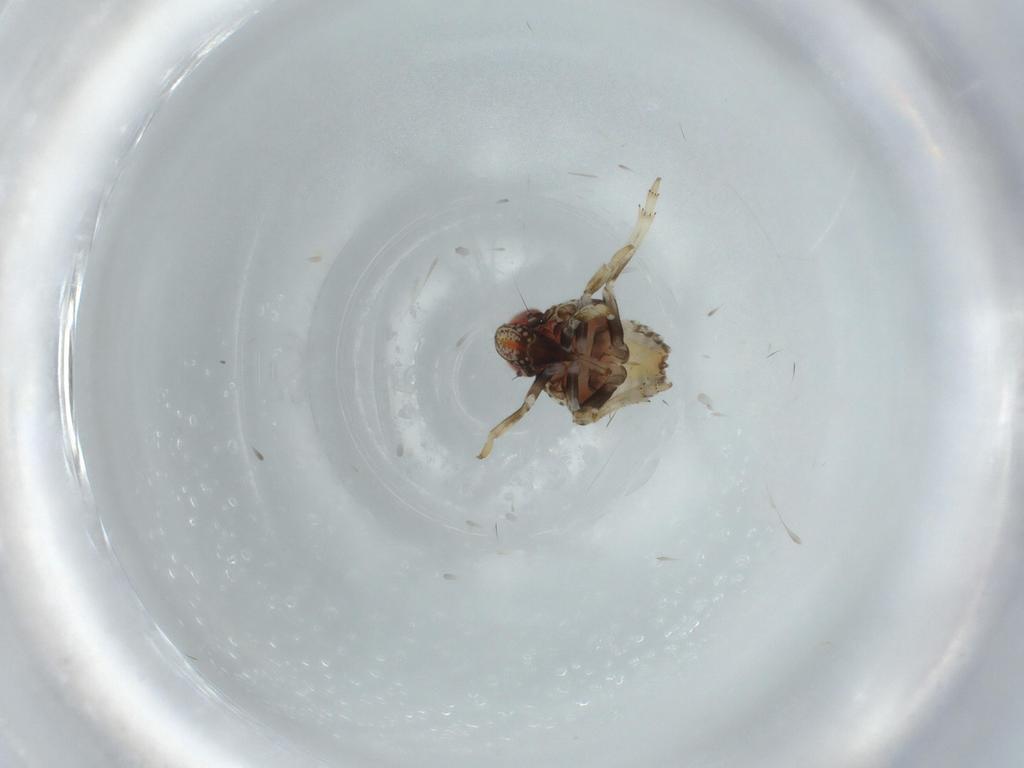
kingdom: Animalia
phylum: Arthropoda
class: Insecta
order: Hemiptera
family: Issidae
